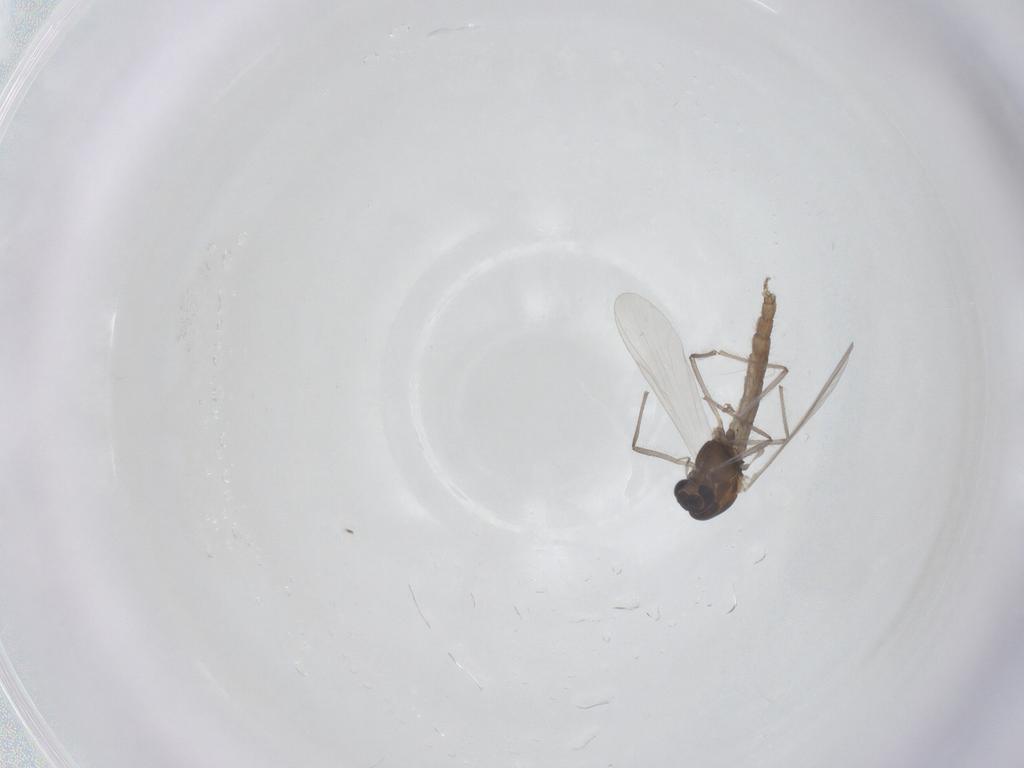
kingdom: Animalia
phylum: Arthropoda
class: Insecta
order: Diptera
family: Chironomidae
